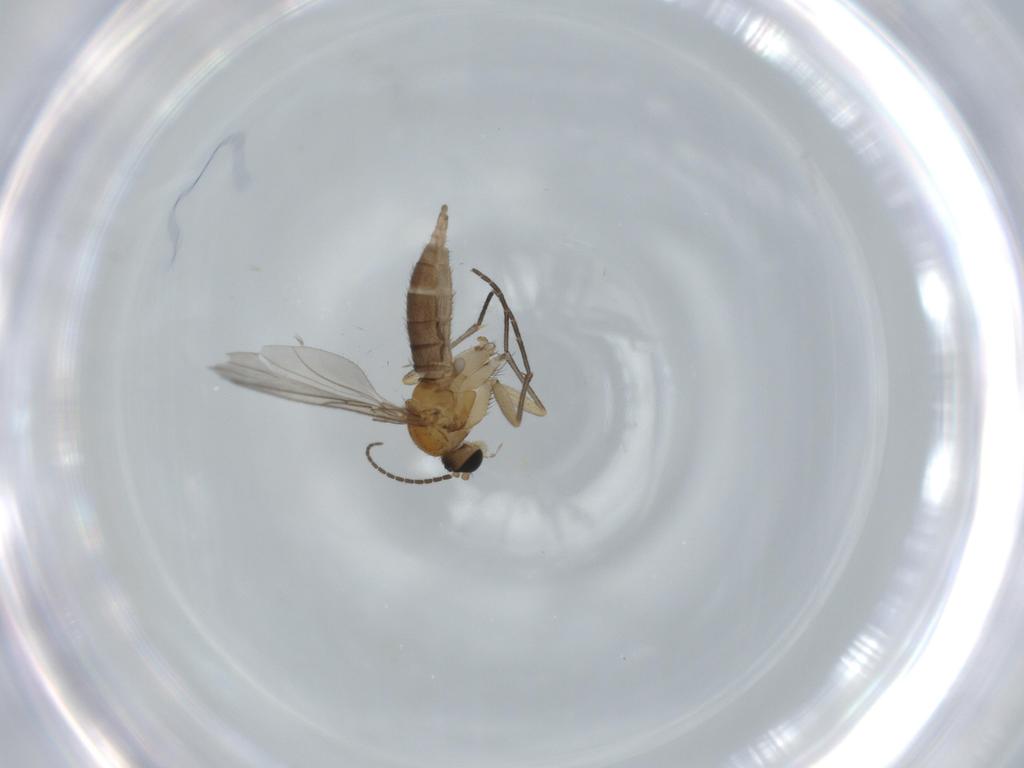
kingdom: Animalia
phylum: Arthropoda
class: Insecta
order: Diptera
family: Sciaridae
